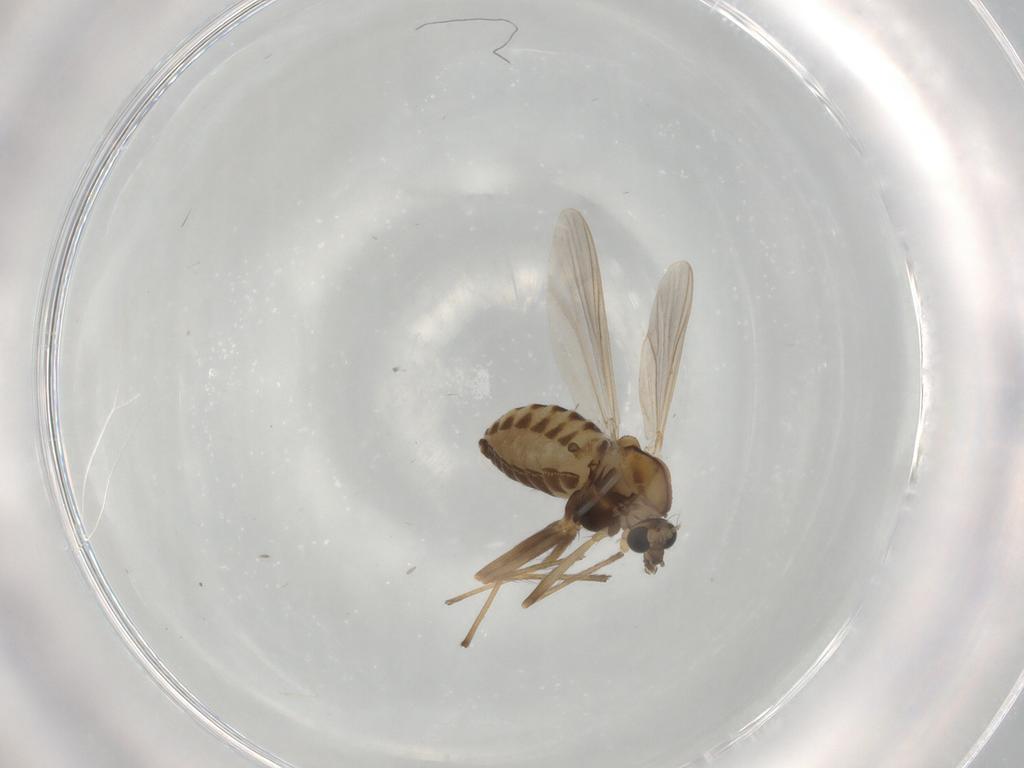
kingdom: Animalia
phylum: Arthropoda
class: Insecta
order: Diptera
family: Chironomidae
